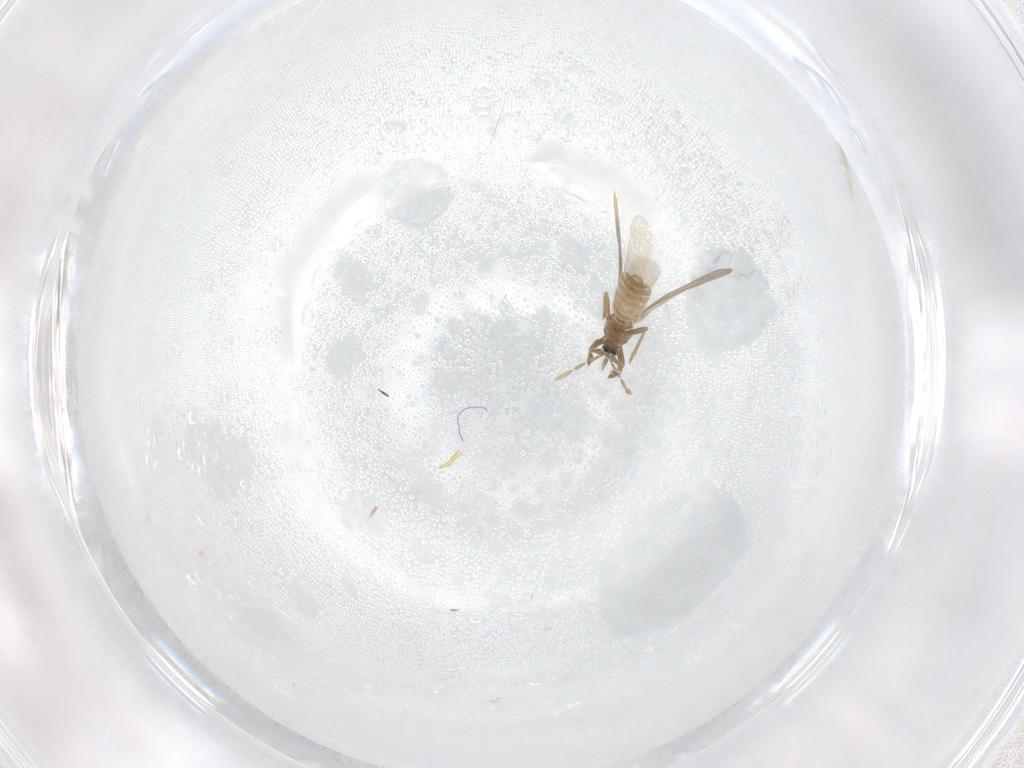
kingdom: Animalia
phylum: Arthropoda
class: Insecta
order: Hemiptera
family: Enicocephalidae
